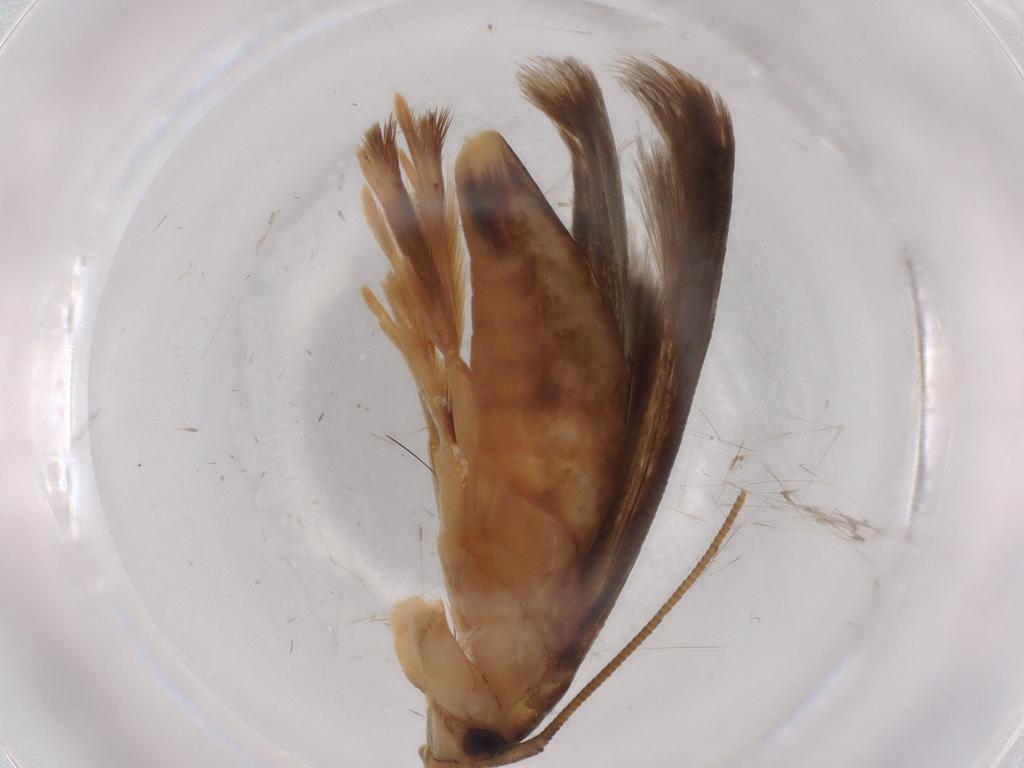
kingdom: Animalia
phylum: Arthropoda
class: Insecta
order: Lepidoptera
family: Tineidae
